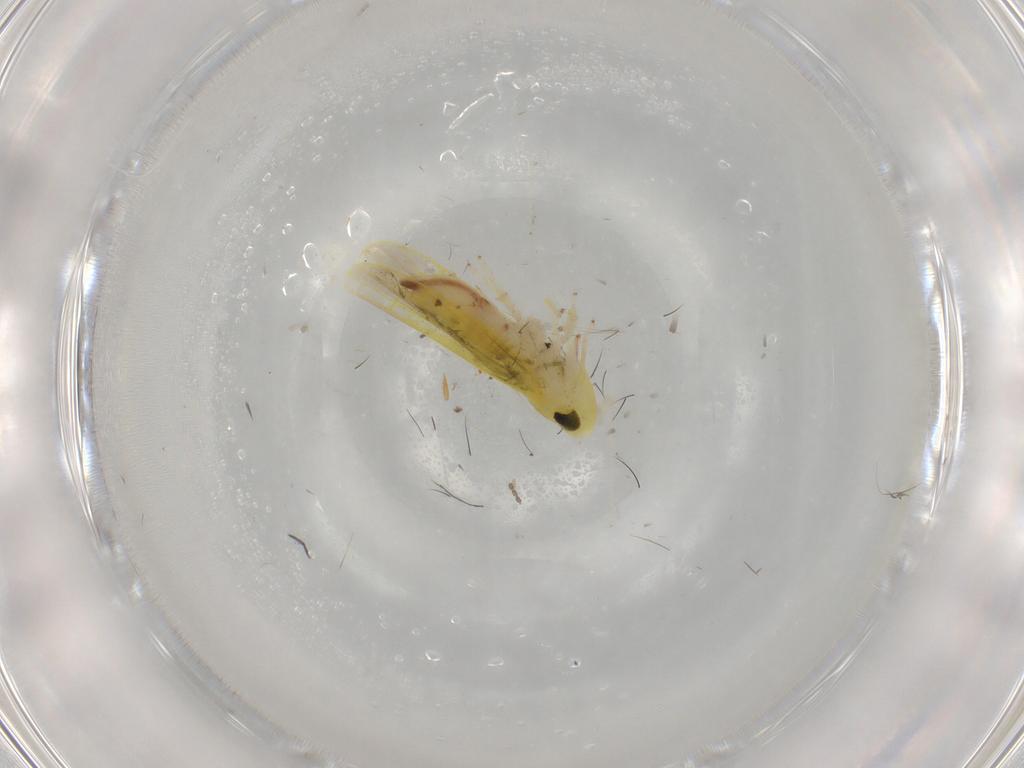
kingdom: Animalia
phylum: Arthropoda
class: Insecta
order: Hemiptera
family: Cicadellidae
